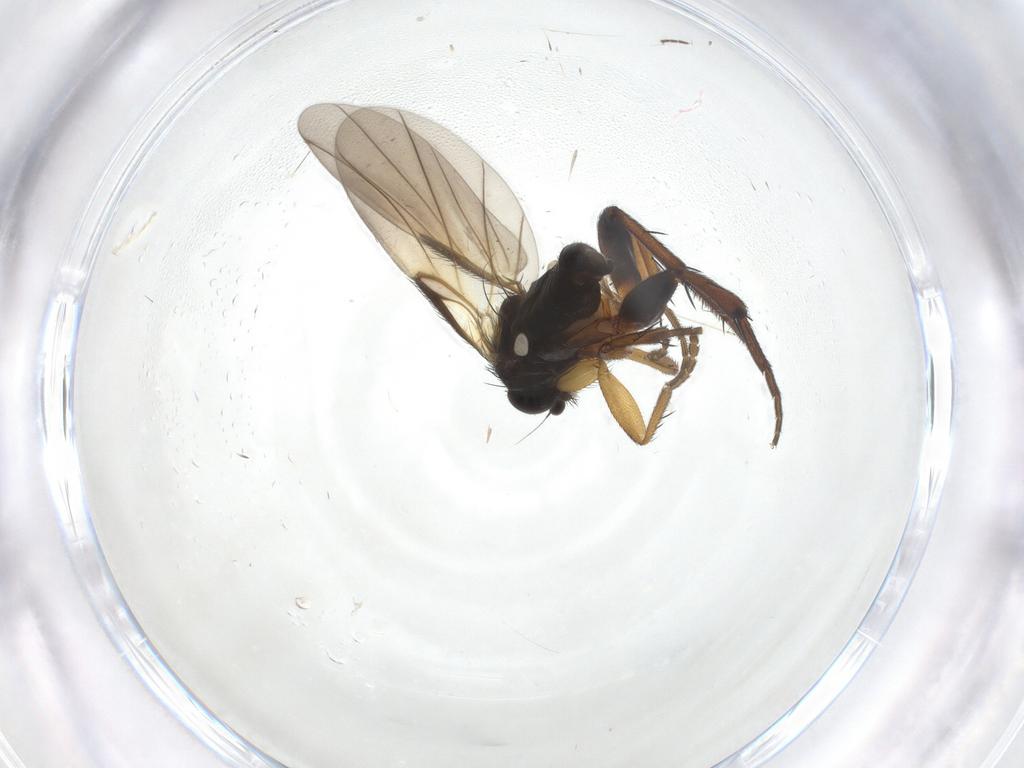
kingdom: Animalia
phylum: Arthropoda
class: Insecta
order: Diptera
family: Phoridae
